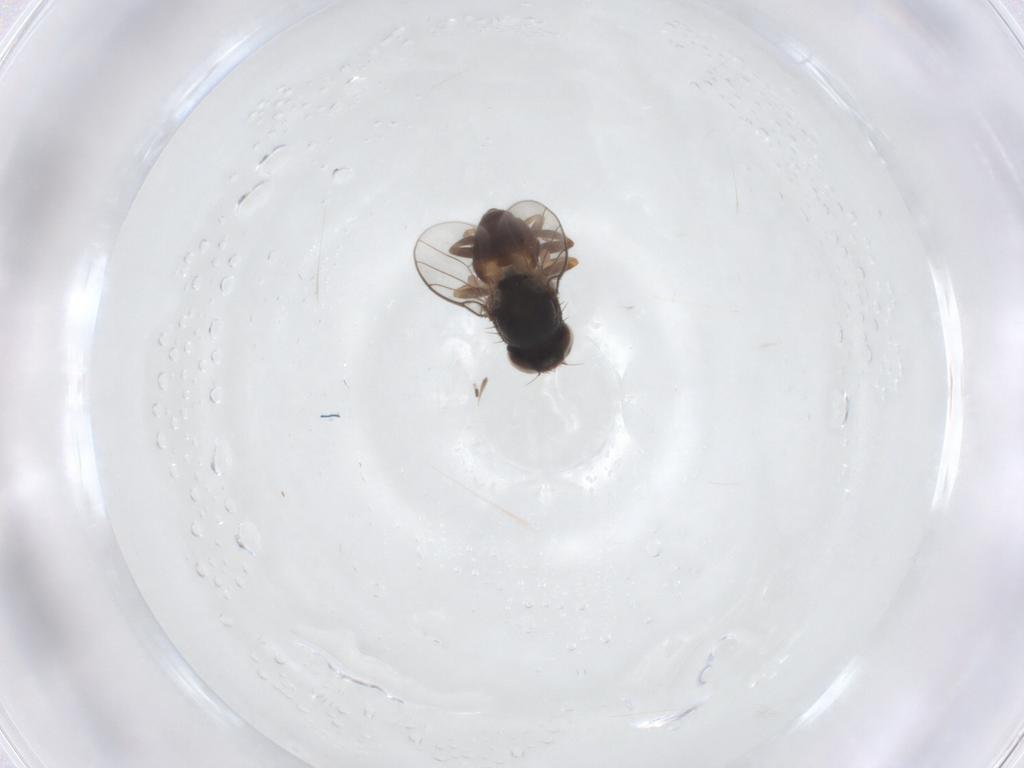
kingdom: Animalia
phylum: Arthropoda
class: Insecta
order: Diptera
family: Chloropidae
